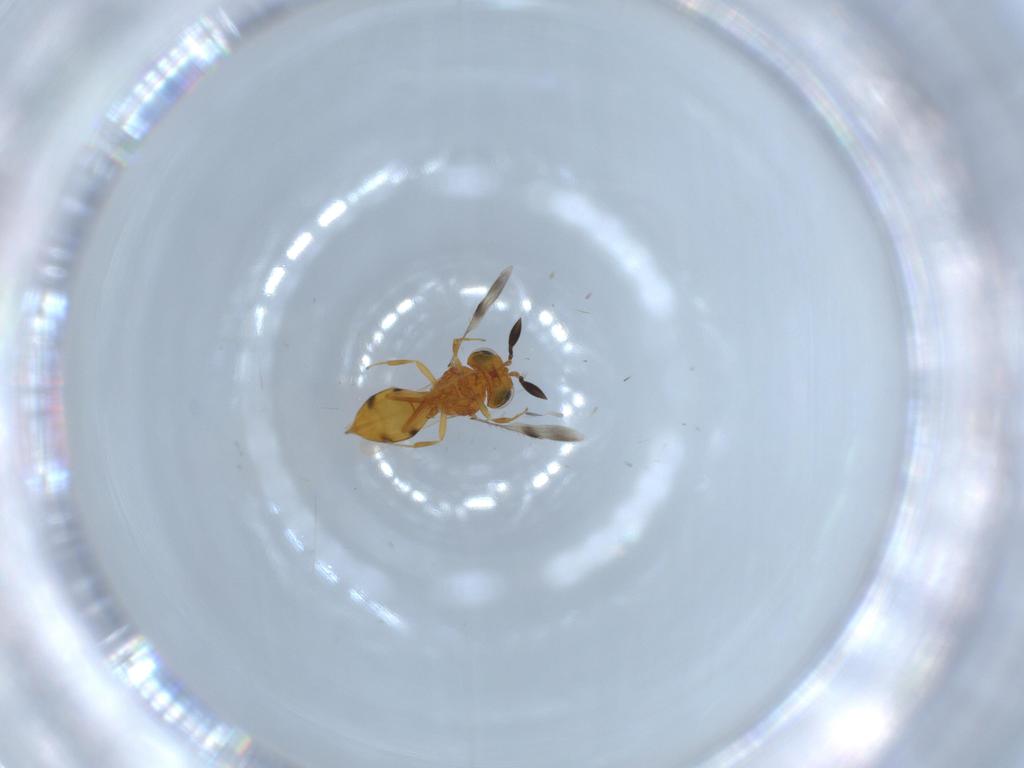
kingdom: Animalia
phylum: Arthropoda
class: Insecta
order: Hymenoptera
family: Scelionidae
